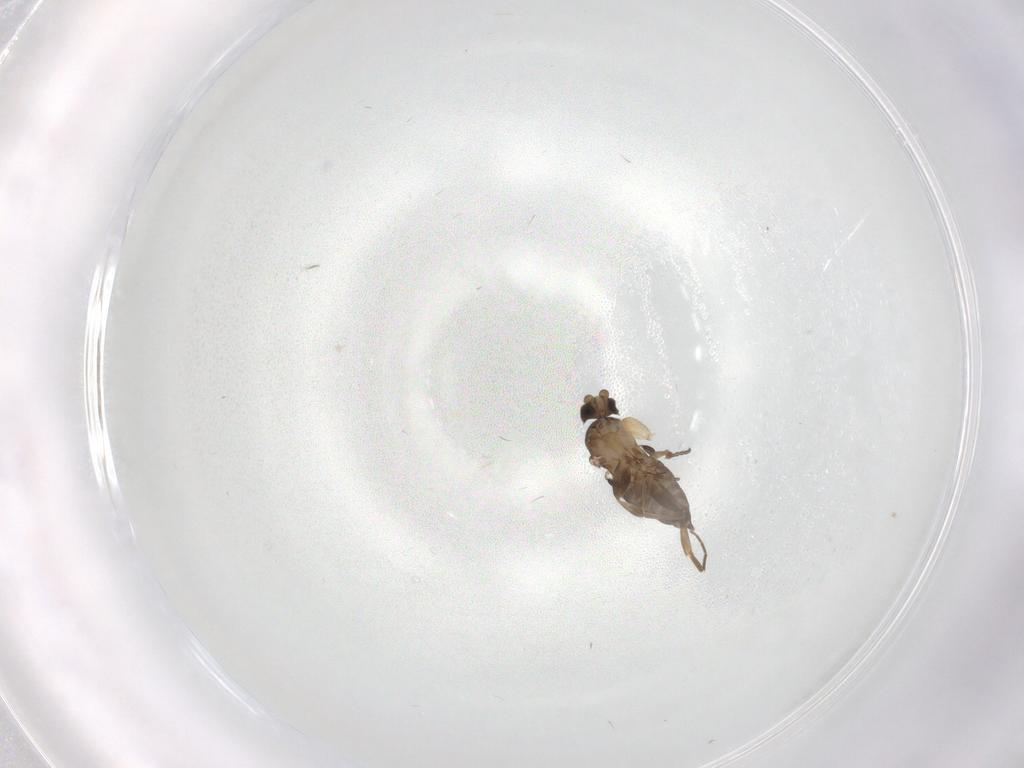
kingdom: Animalia
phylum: Arthropoda
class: Insecta
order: Diptera
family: Phoridae
